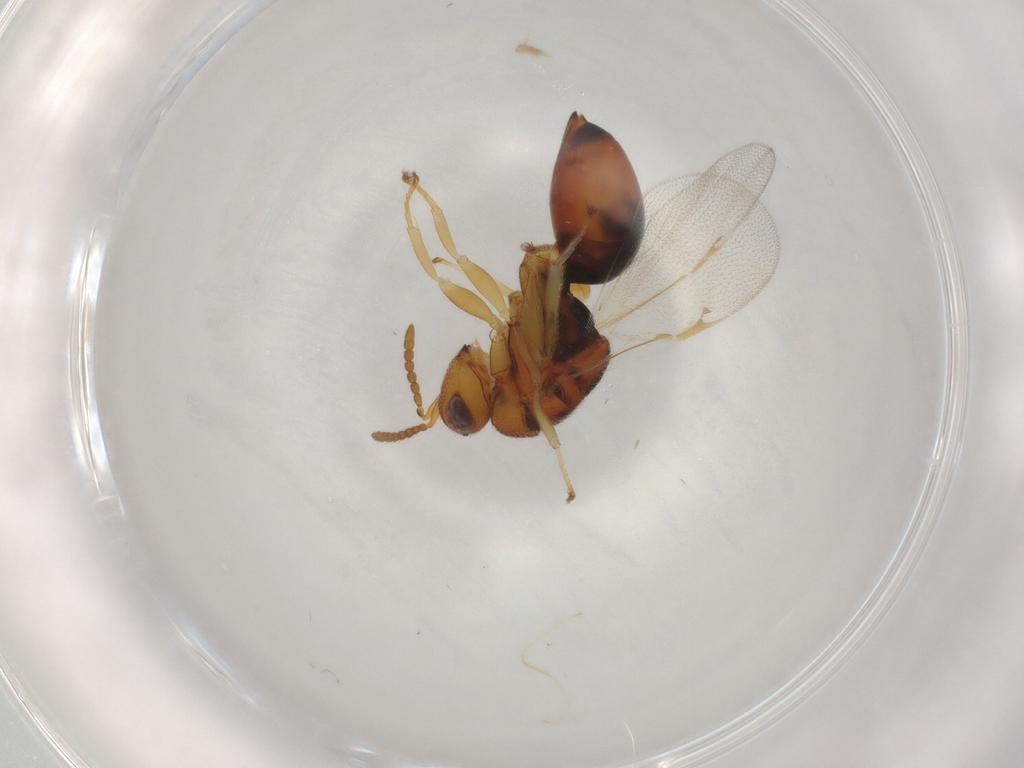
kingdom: Animalia
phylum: Arthropoda
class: Insecta
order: Hymenoptera
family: Eurytomidae
